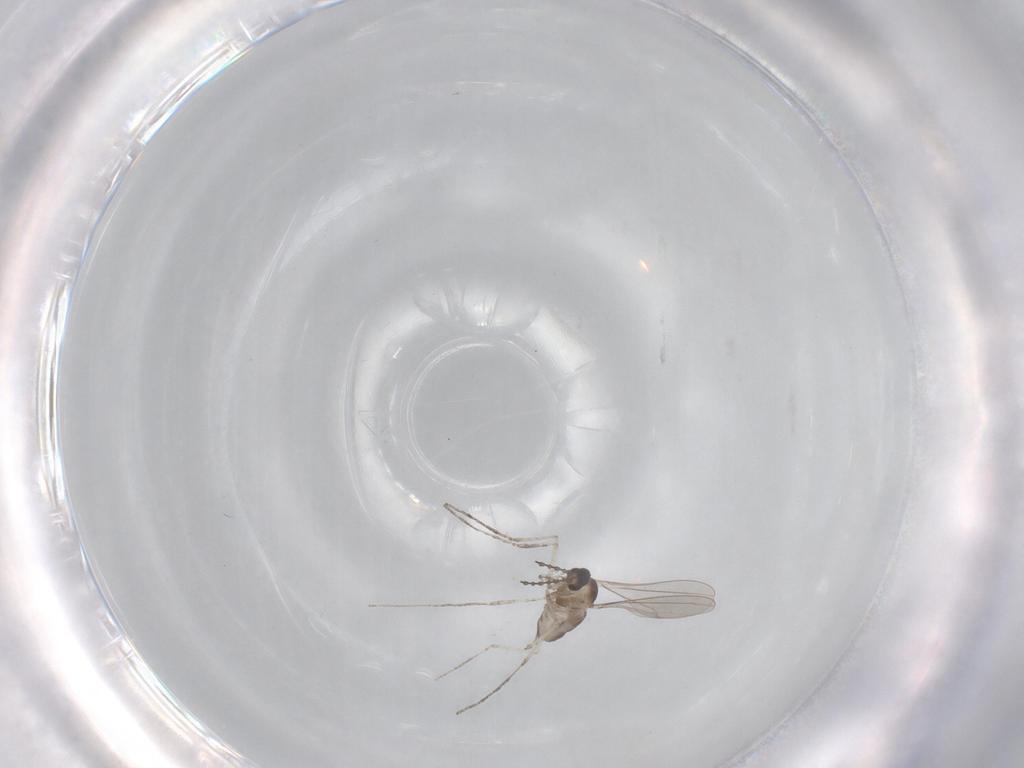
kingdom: Animalia
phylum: Arthropoda
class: Insecta
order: Diptera
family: Cecidomyiidae
